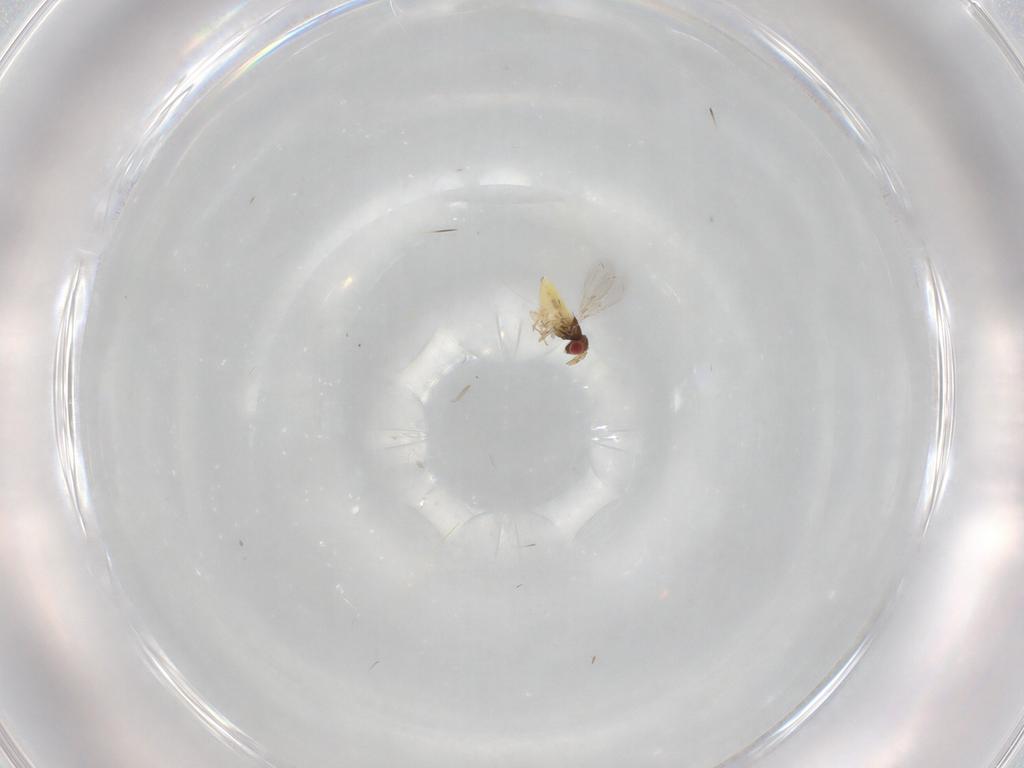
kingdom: Animalia
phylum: Arthropoda
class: Insecta
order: Hymenoptera
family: Trichogrammatidae
